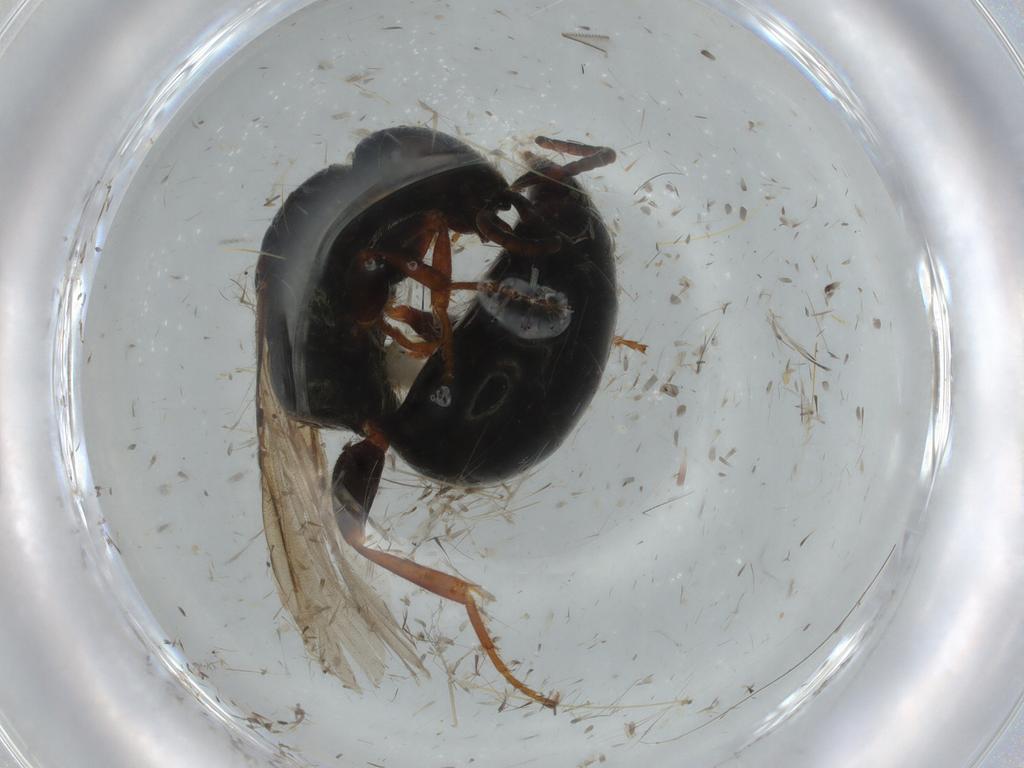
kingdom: Animalia
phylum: Arthropoda
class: Insecta
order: Hymenoptera
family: Bethylidae
